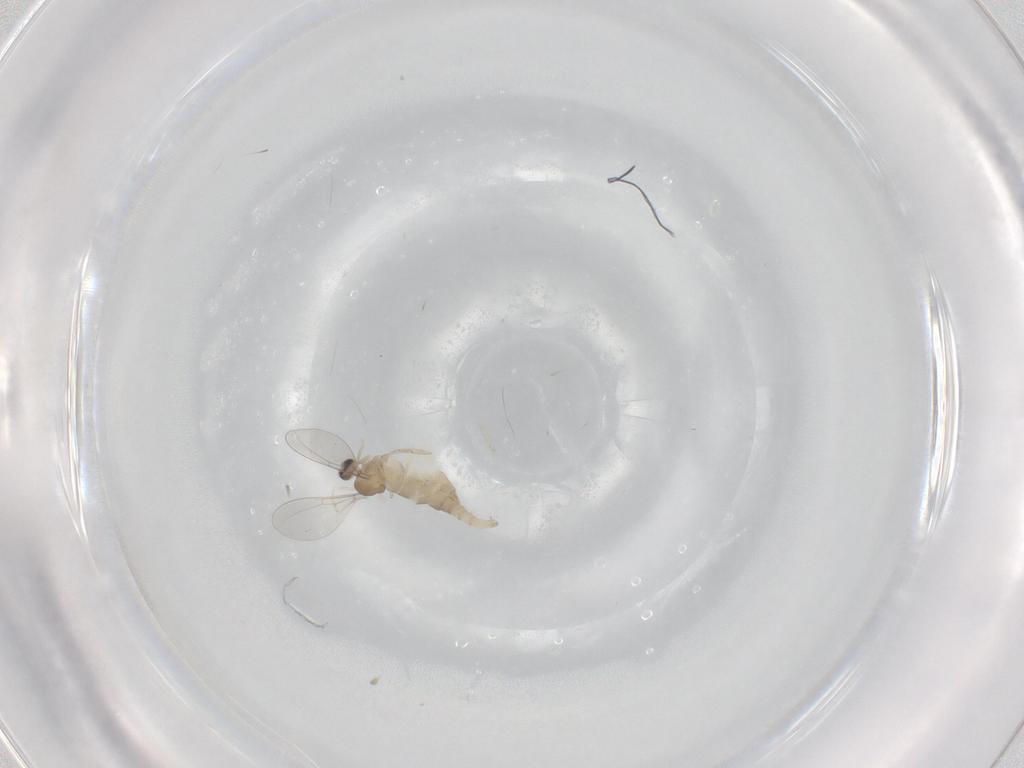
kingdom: Animalia
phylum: Arthropoda
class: Insecta
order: Diptera
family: Cecidomyiidae
